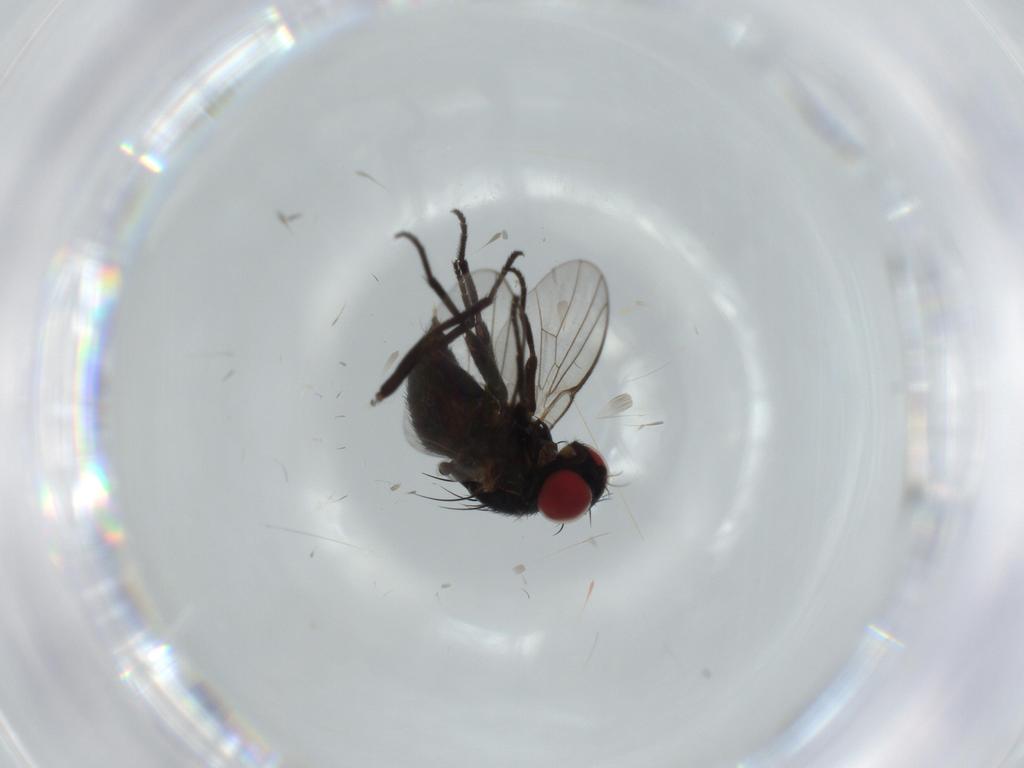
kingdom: Animalia
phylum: Arthropoda
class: Insecta
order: Diptera
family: Agromyzidae
